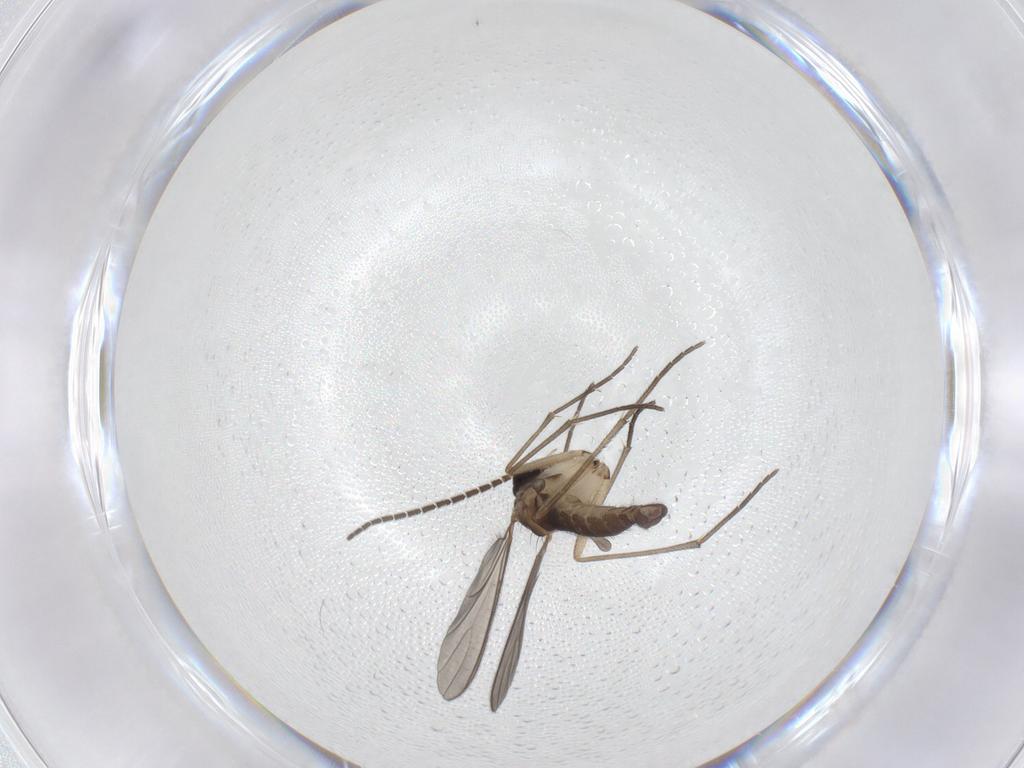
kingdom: Animalia
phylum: Arthropoda
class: Insecta
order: Diptera
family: Sciaridae
